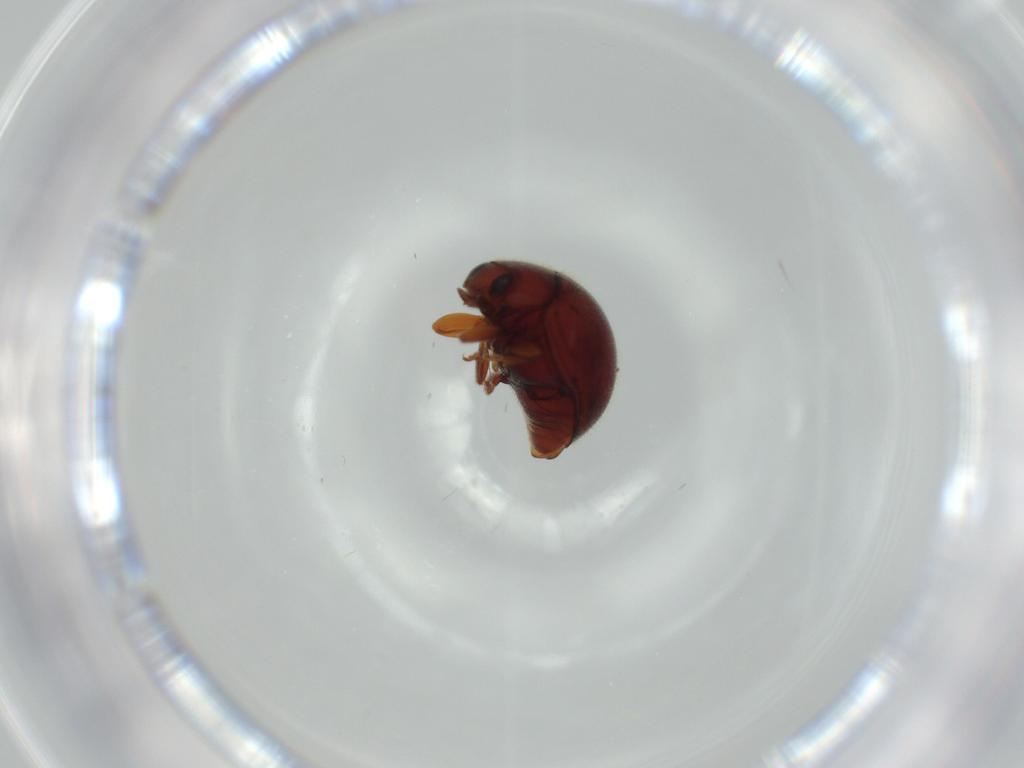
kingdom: Animalia
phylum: Arthropoda
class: Insecta
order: Coleoptera
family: Coccinellidae
